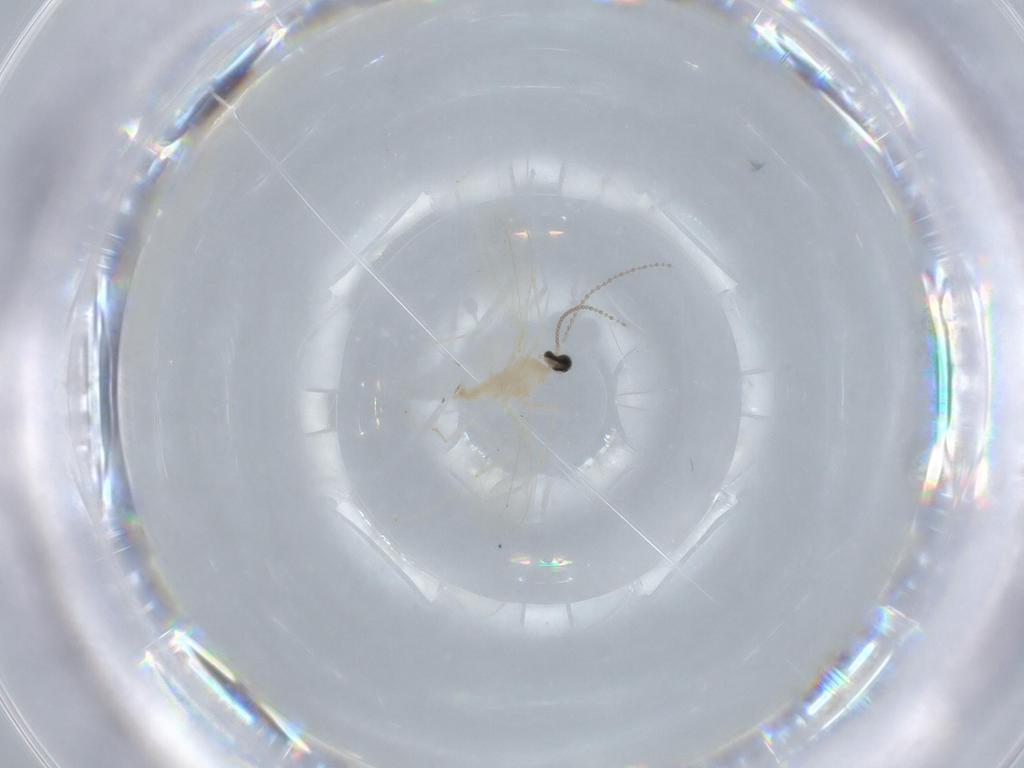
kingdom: Animalia
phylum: Arthropoda
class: Insecta
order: Diptera
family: Cecidomyiidae
